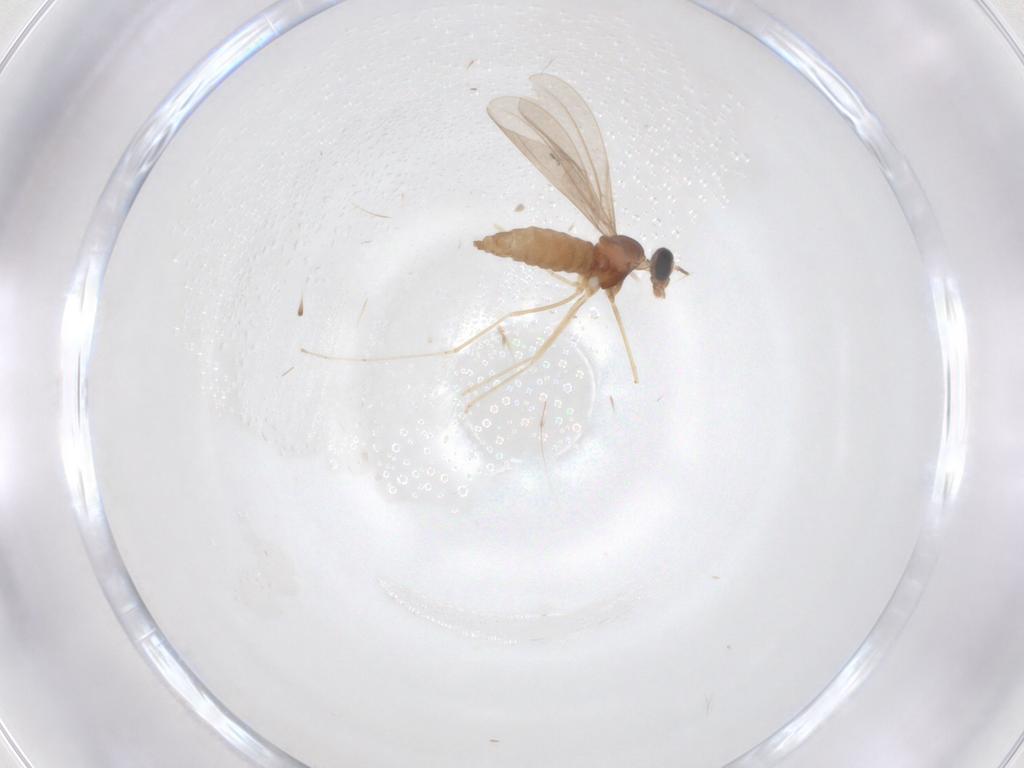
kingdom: Animalia
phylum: Arthropoda
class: Insecta
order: Diptera
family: Cecidomyiidae
